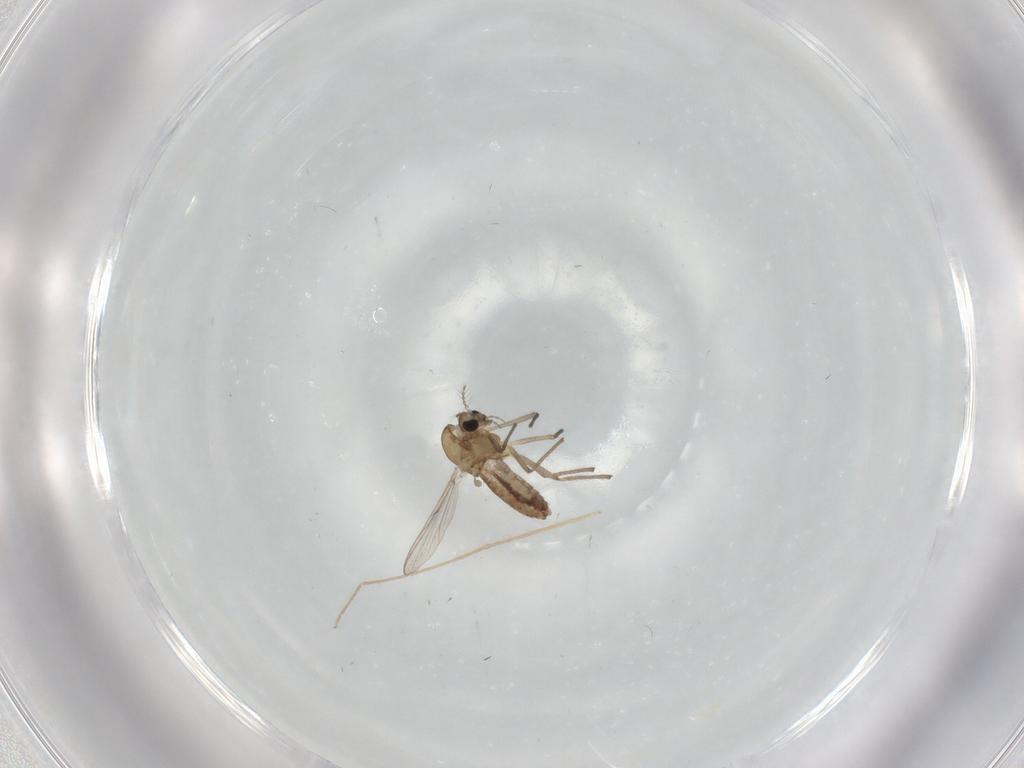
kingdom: Animalia
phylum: Arthropoda
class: Insecta
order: Diptera
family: Chironomidae
